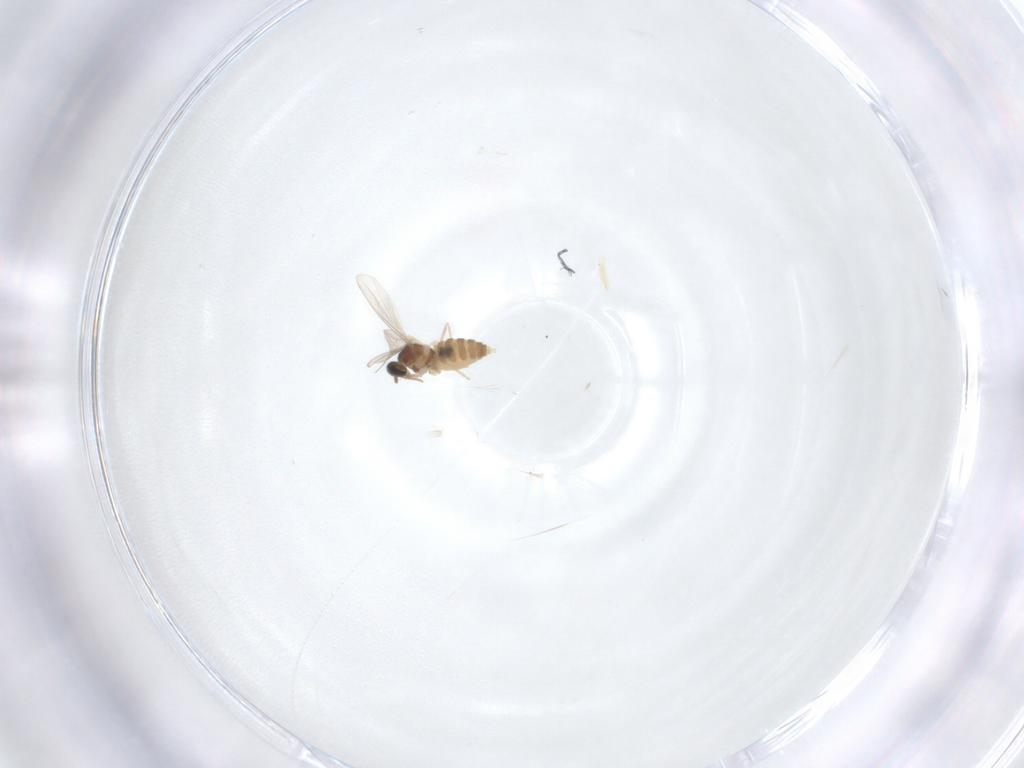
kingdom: Animalia
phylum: Arthropoda
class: Insecta
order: Diptera
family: Cecidomyiidae
